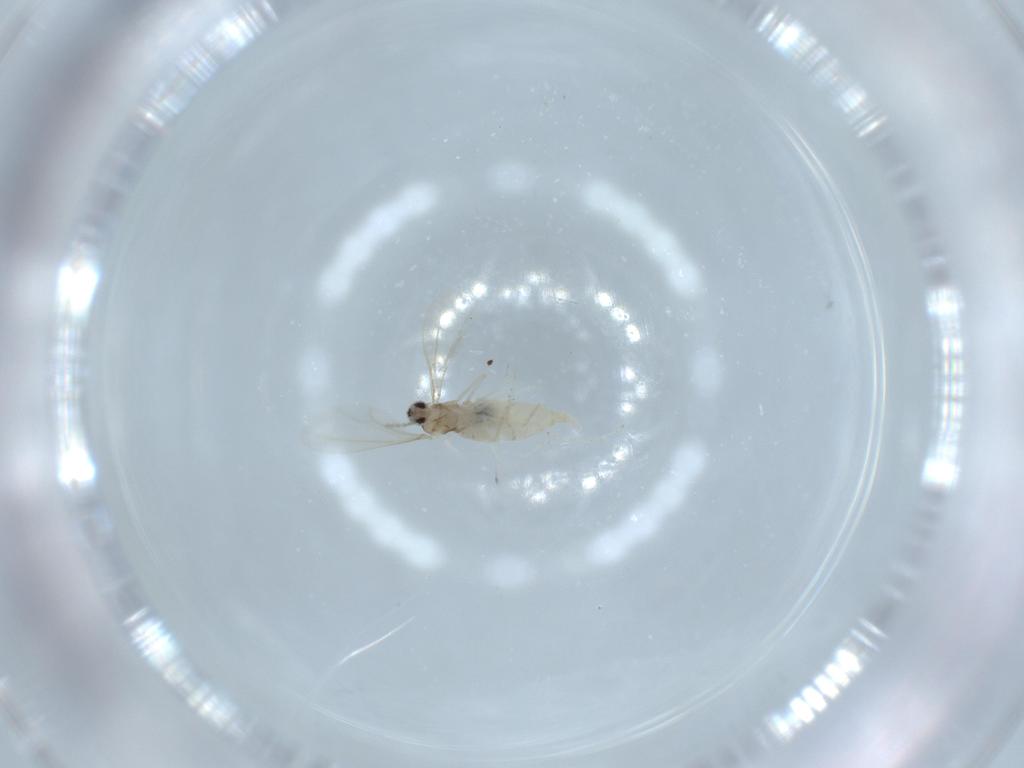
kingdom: Animalia
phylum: Arthropoda
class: Insecta
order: Diptera
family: Cecidomyiidae
